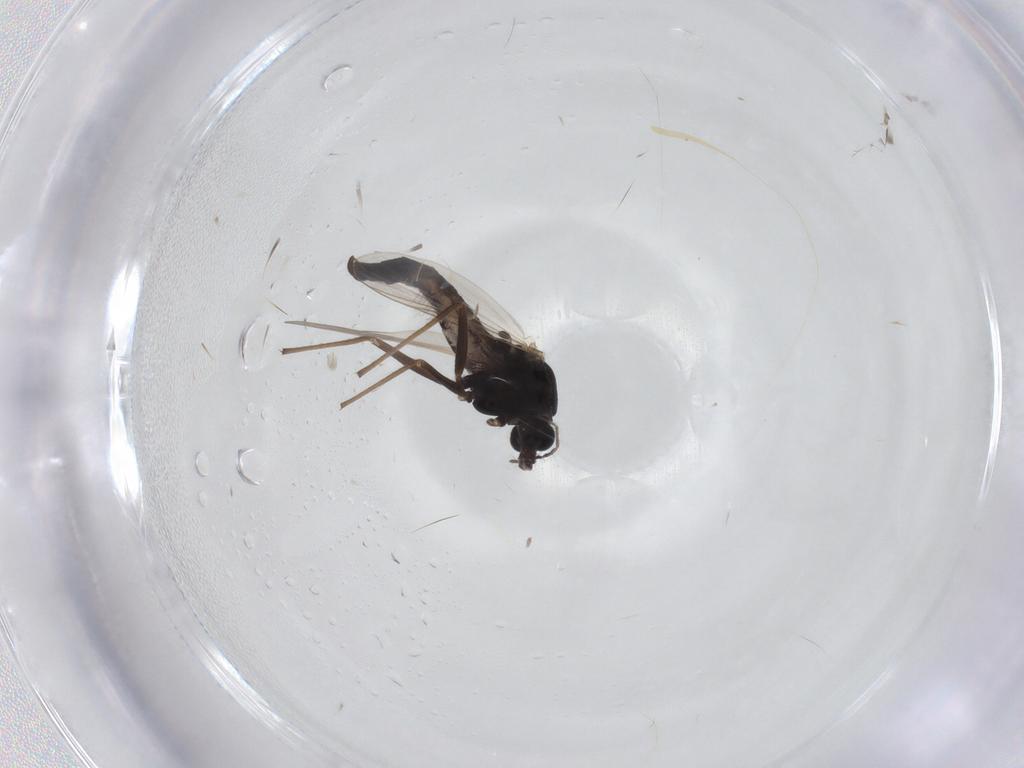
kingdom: Animalia
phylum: Arthropoda
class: Insecta
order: Diptera
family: Chironomidae
